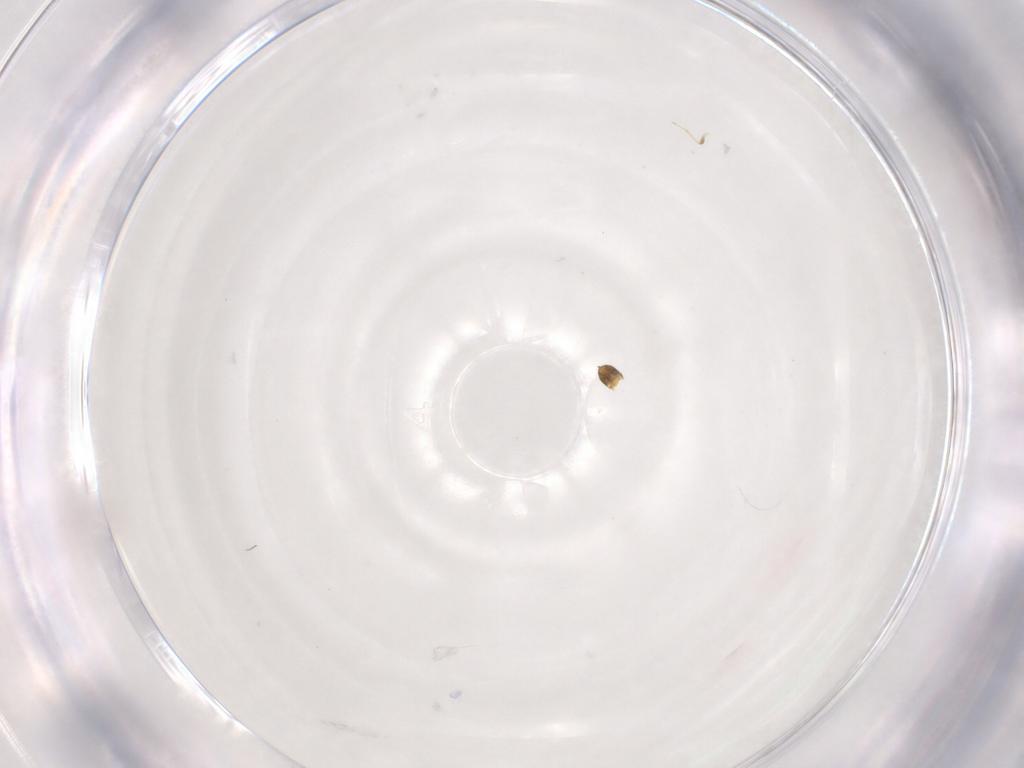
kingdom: Animalia
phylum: Arthropoda
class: Insecta
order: Hymenoptera
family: Trichogrammatidae
